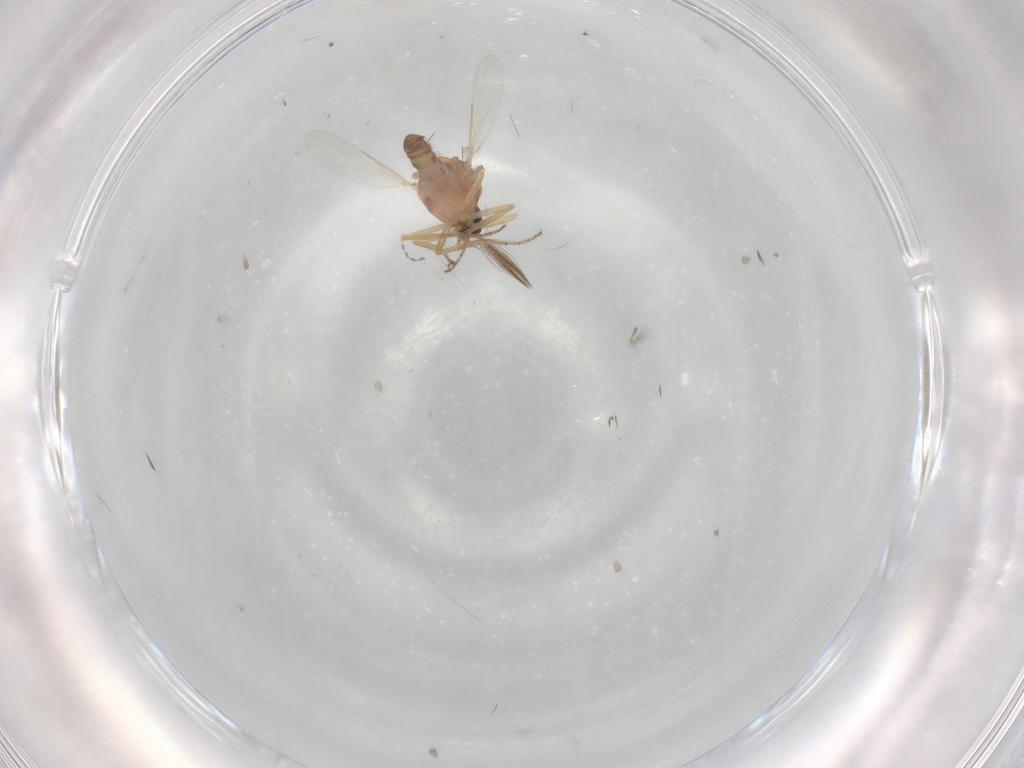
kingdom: Animalia
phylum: Arthropoda
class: Insecta
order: Diptera
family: Ceratopogonidae
